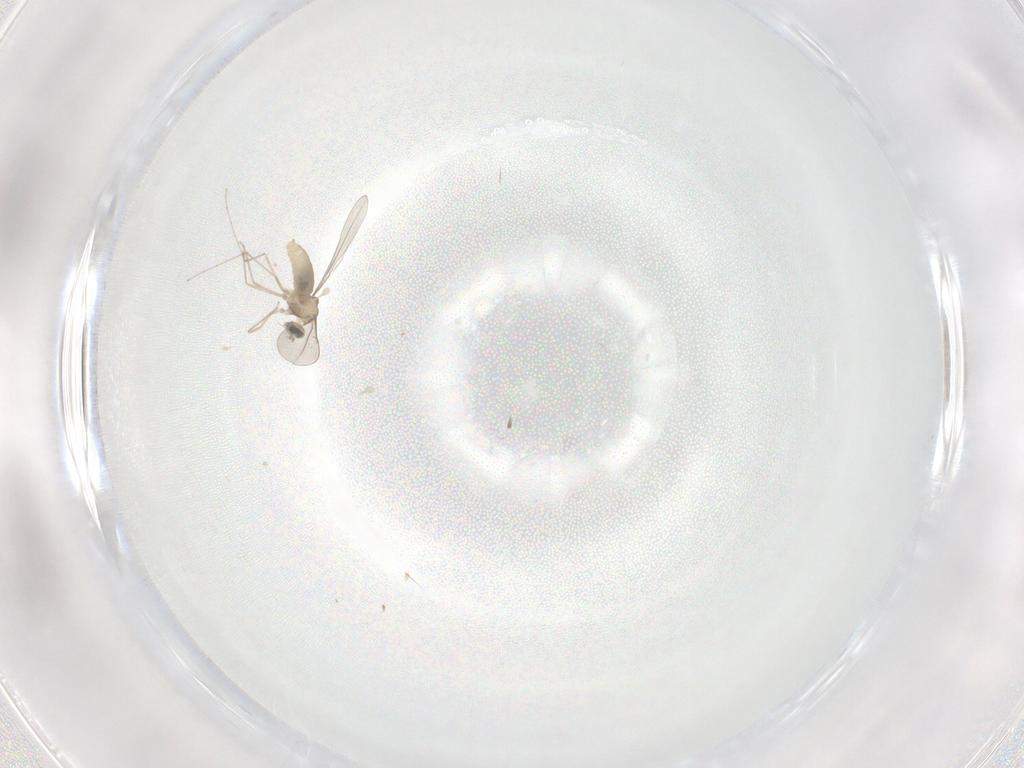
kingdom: Animalia
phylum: Arthropoda
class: Insecta
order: Diptera
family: Cecidomyiidae
